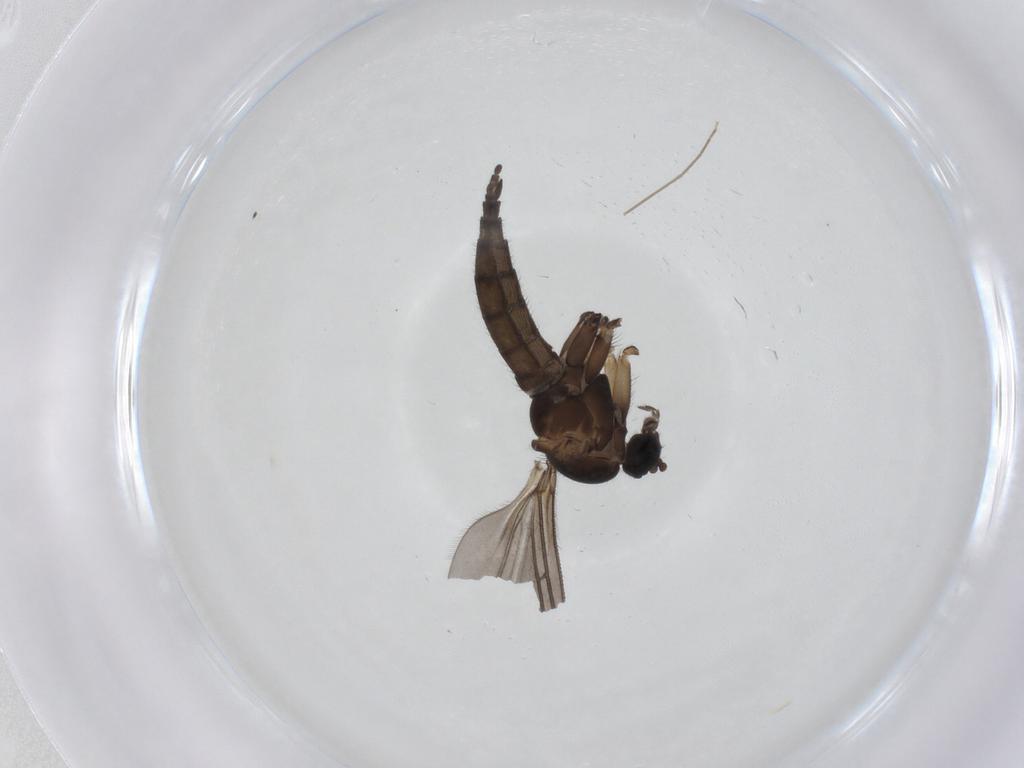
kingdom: Animalia
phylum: Arthropoda
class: Insecta
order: Diptera
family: Sciaridae
